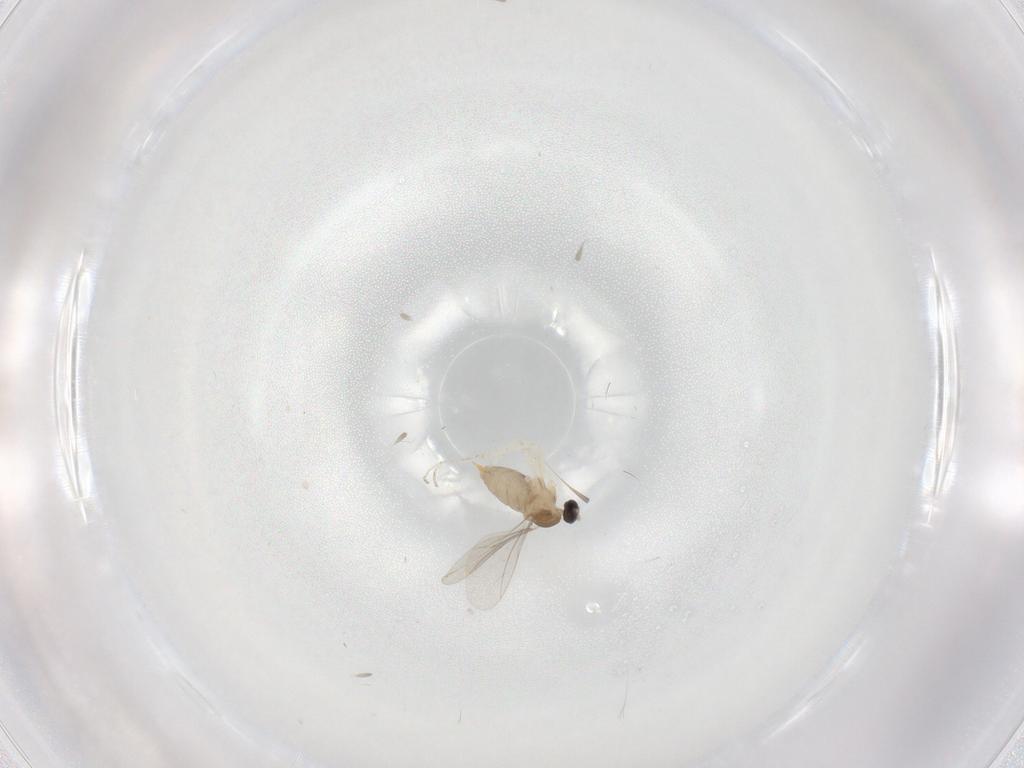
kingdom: Animalia
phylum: Arthropoda
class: Insecta
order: Diptera
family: Cecidomyiidae
